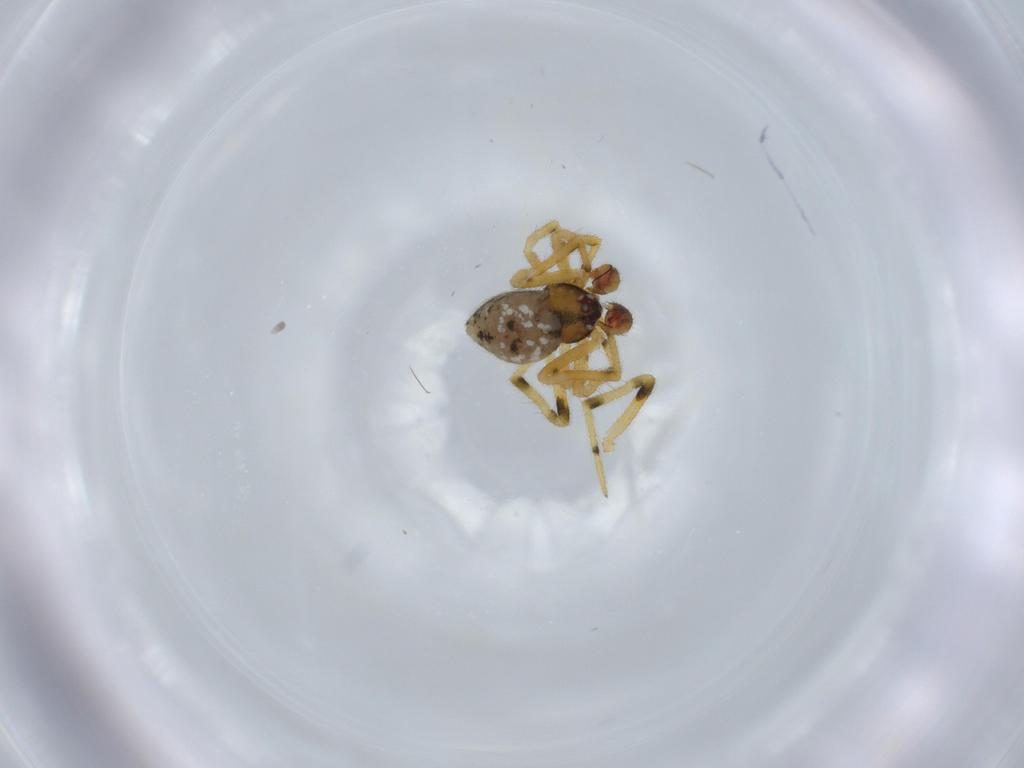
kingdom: Animalia
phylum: Arthropoda
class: Arachnida
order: Araneae
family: Theridiidae
